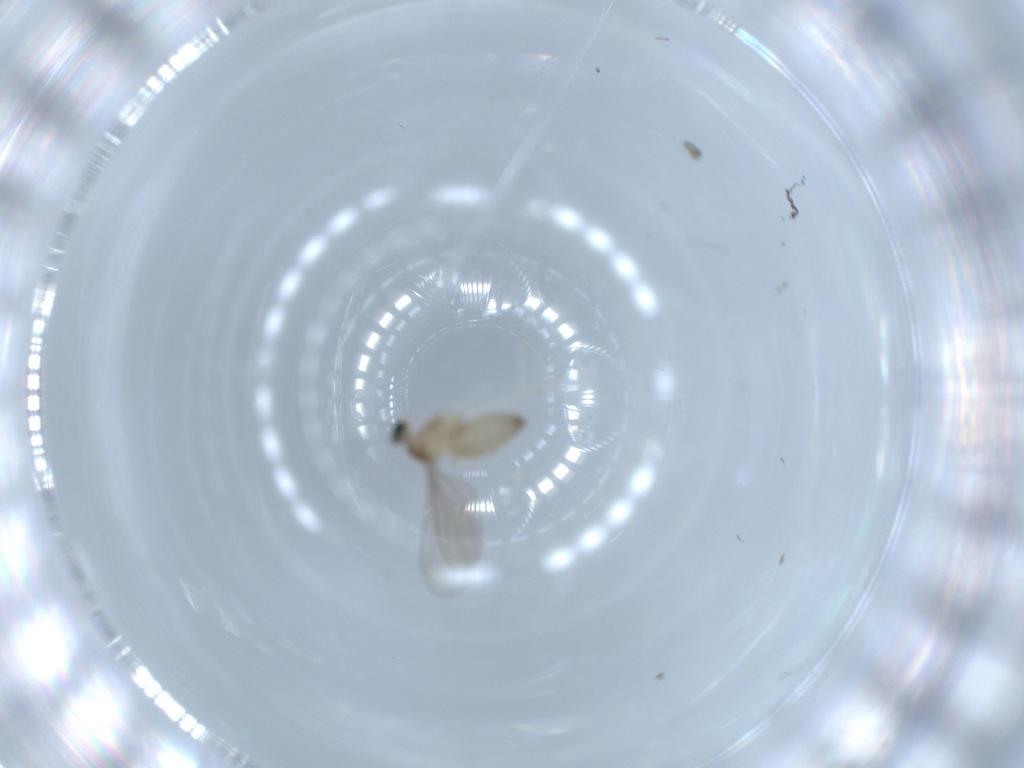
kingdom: Animalia
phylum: Arthropoda
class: Insecta
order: Diptera
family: Cecidomyiidae
